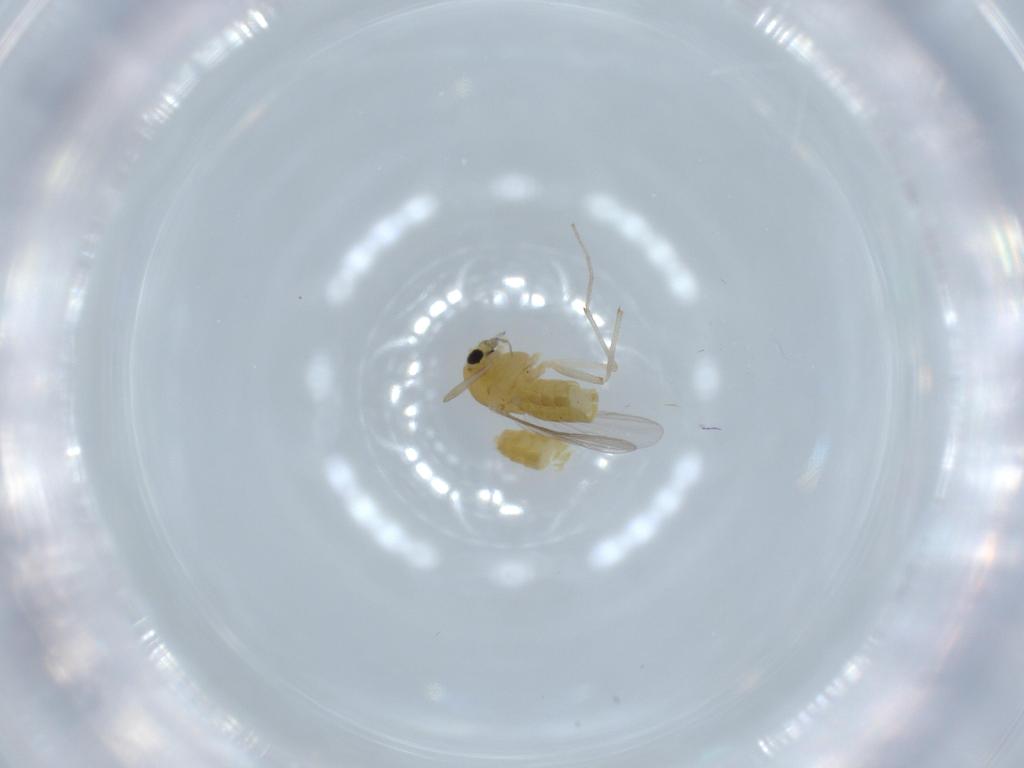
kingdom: Animalia
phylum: Arthropoda
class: Insecta
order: Diptera
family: Chironomidae
